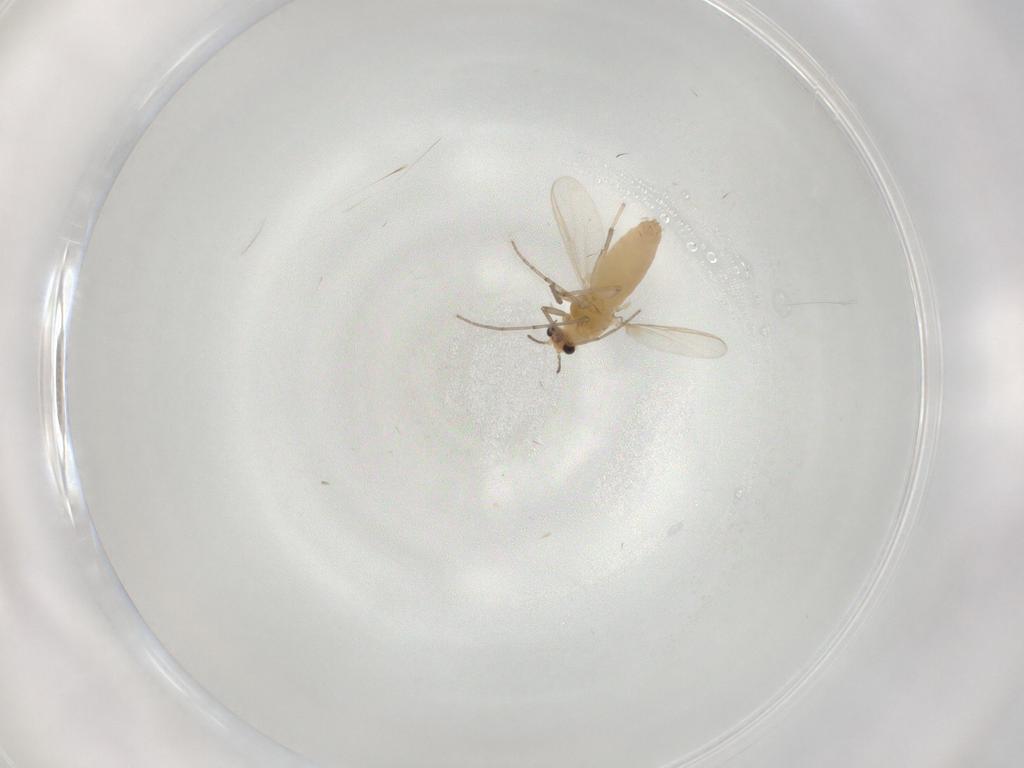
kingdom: Animalia
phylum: Arthropoda
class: Insecta
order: Diptera
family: Chironomidae
